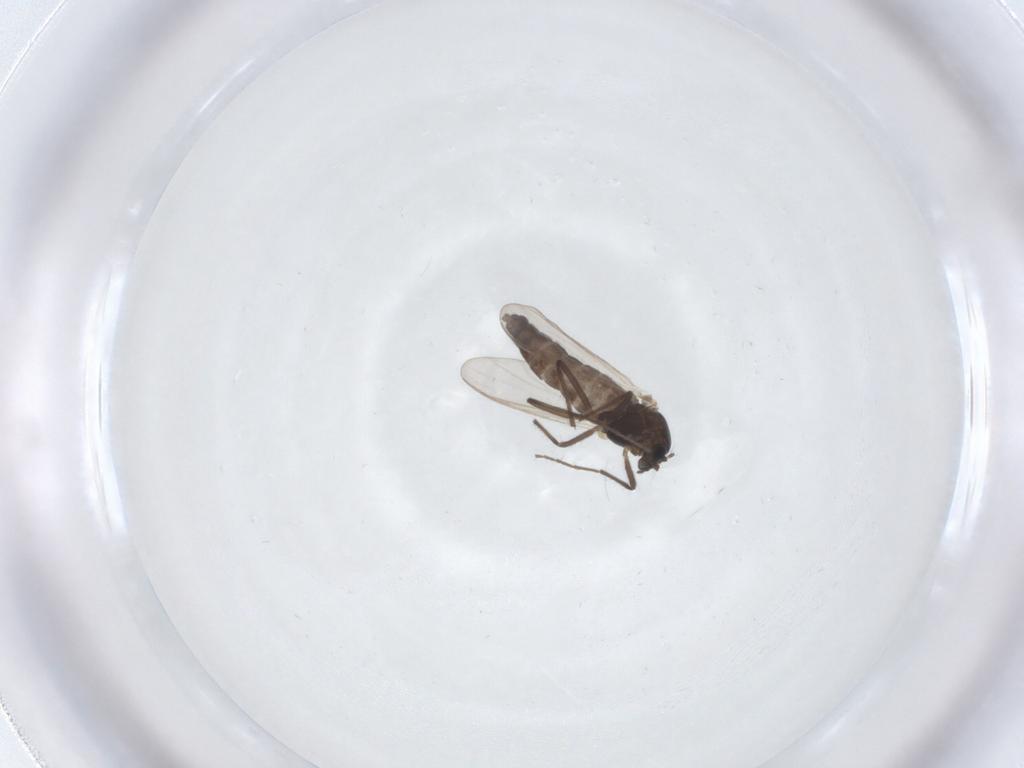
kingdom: Animalia
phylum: Arthropoda
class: Insecta
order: Diptera
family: Chironomidae
